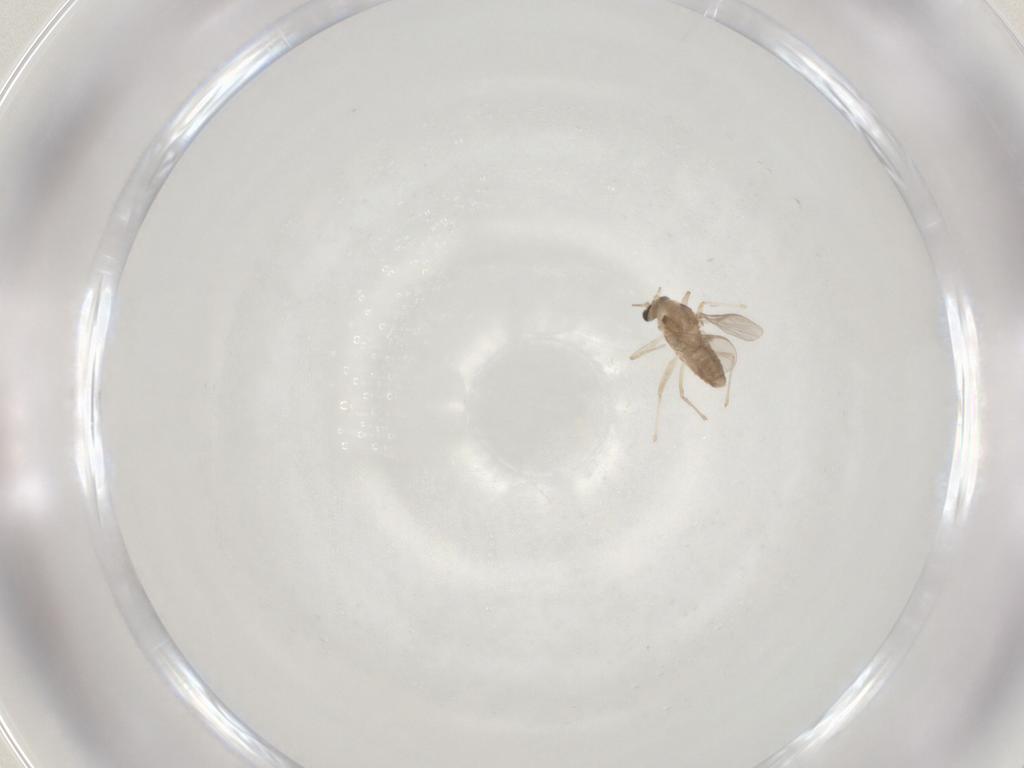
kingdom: Animalia
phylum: Arthropoda
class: Insecta
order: Diptera
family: Chironomidae
